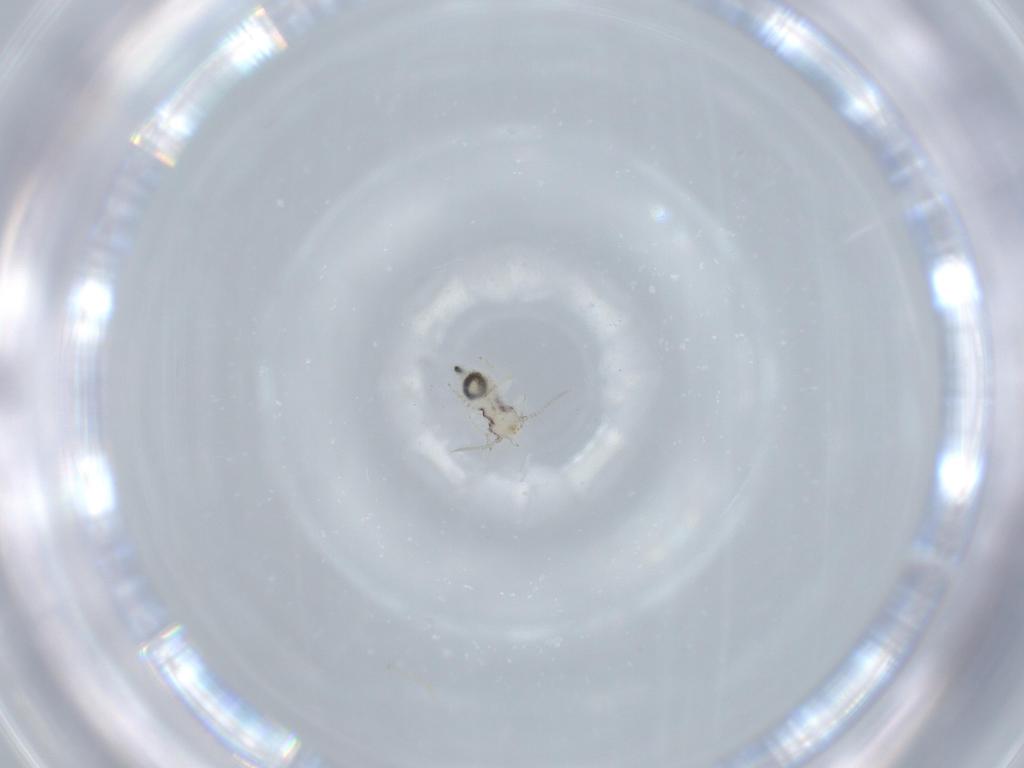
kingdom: Animalia
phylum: Arthropoda
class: Insecta
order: Psocodea
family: Pseudocaeciliidae
